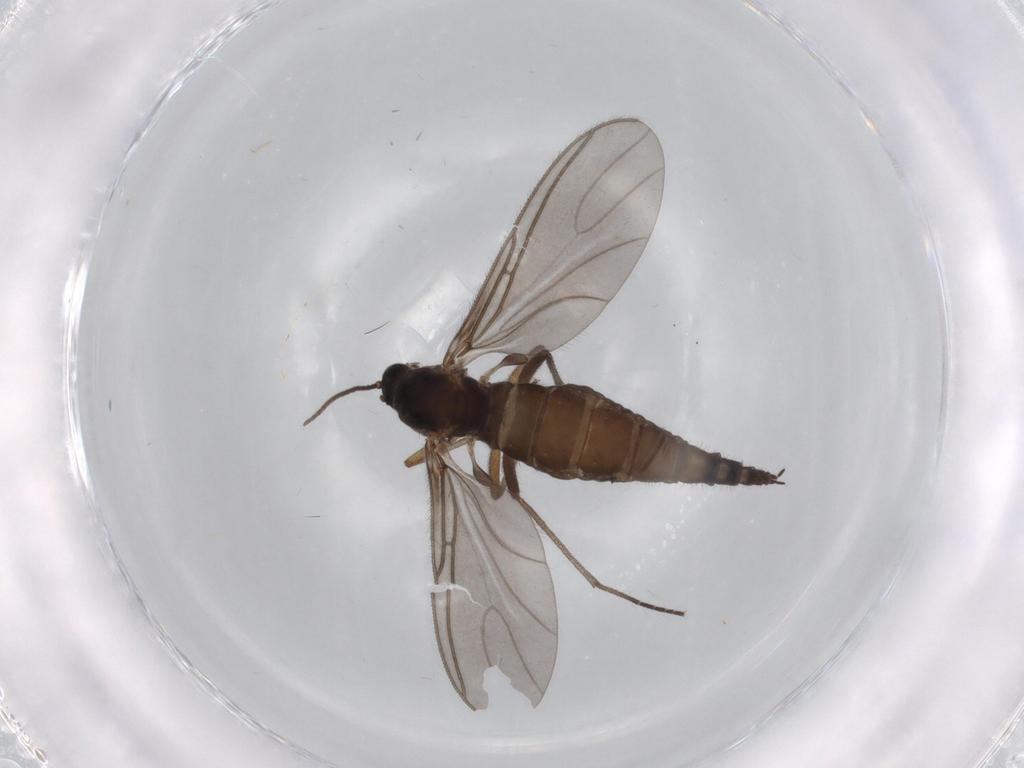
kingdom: Animalia
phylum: Arthropoda
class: Insecta
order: Diptera
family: Sciaridae
